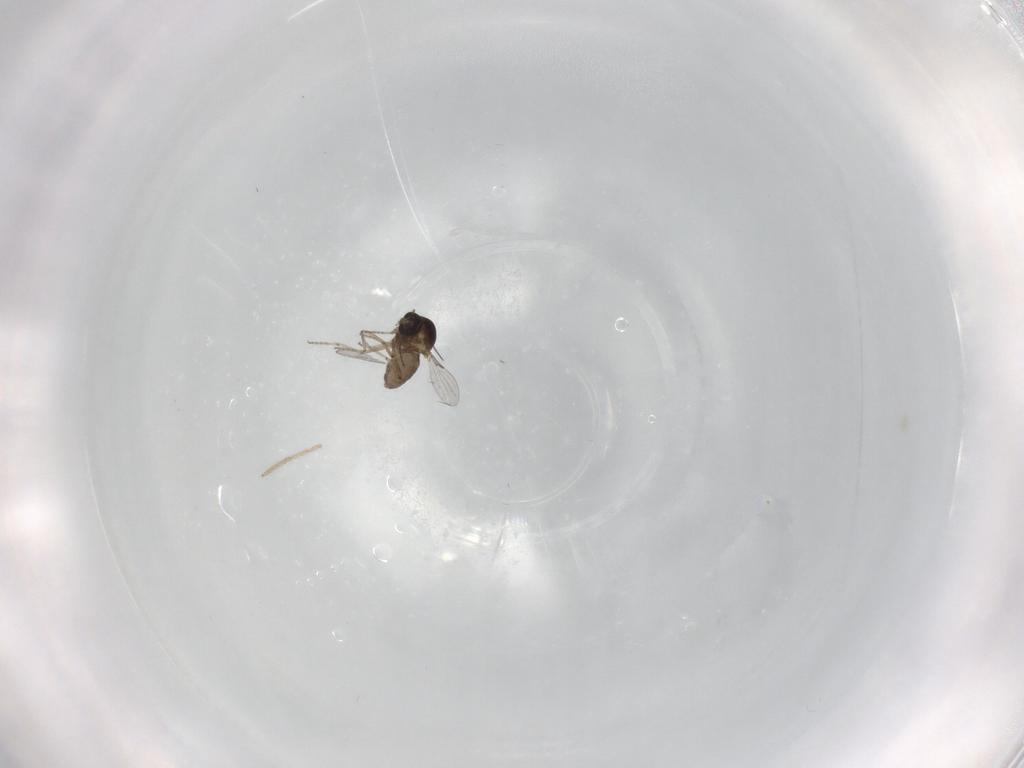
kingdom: Animalia
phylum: Arthropoda
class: Insecta
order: Diptera
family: Ceratopogonidae
